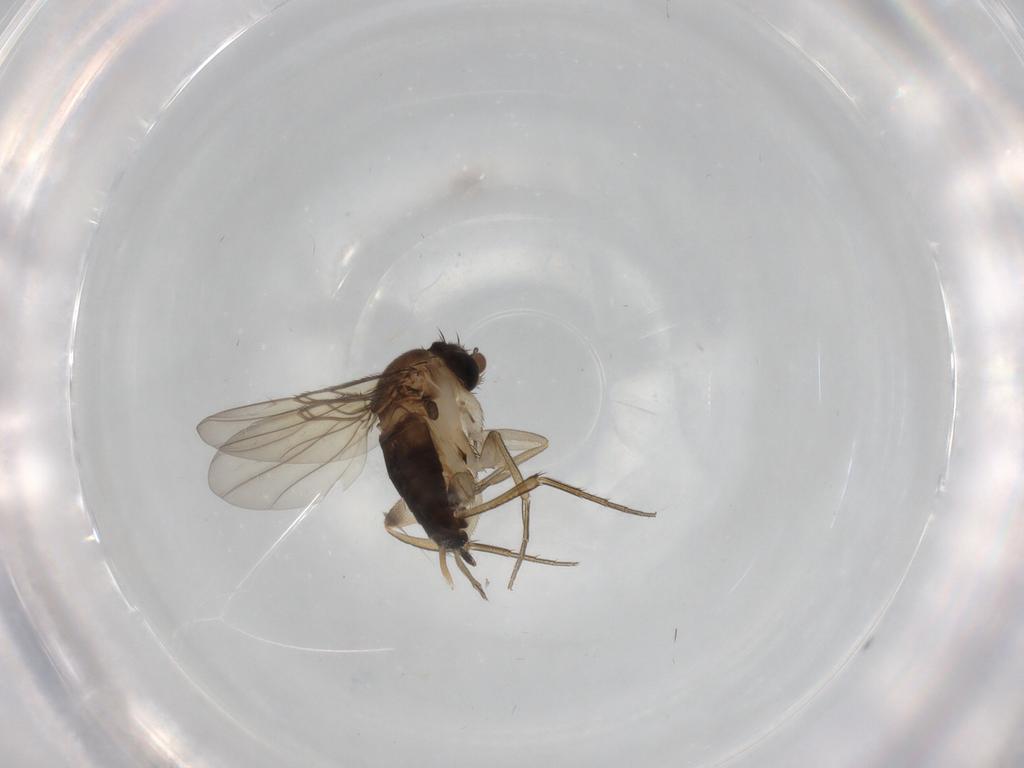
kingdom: Animalia
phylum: Arthropoda
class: Insecta
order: Diptera
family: Phoridae
